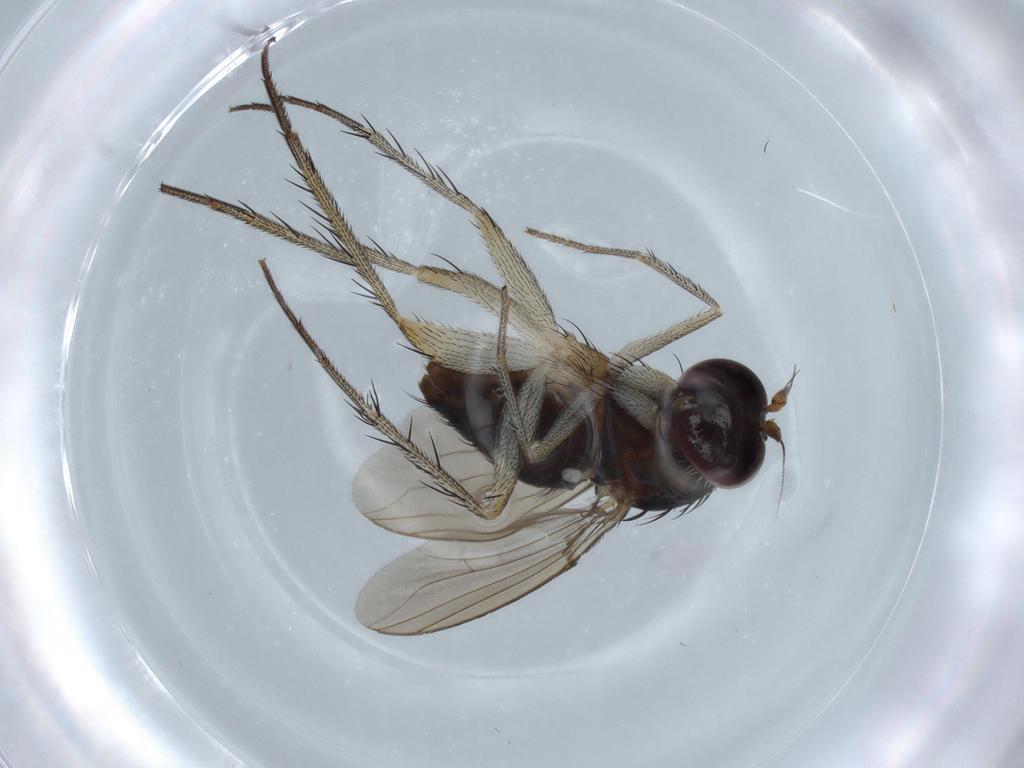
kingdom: Animalia
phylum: Arthropoda
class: Insecta
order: Diptera
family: Dolichopodidae
